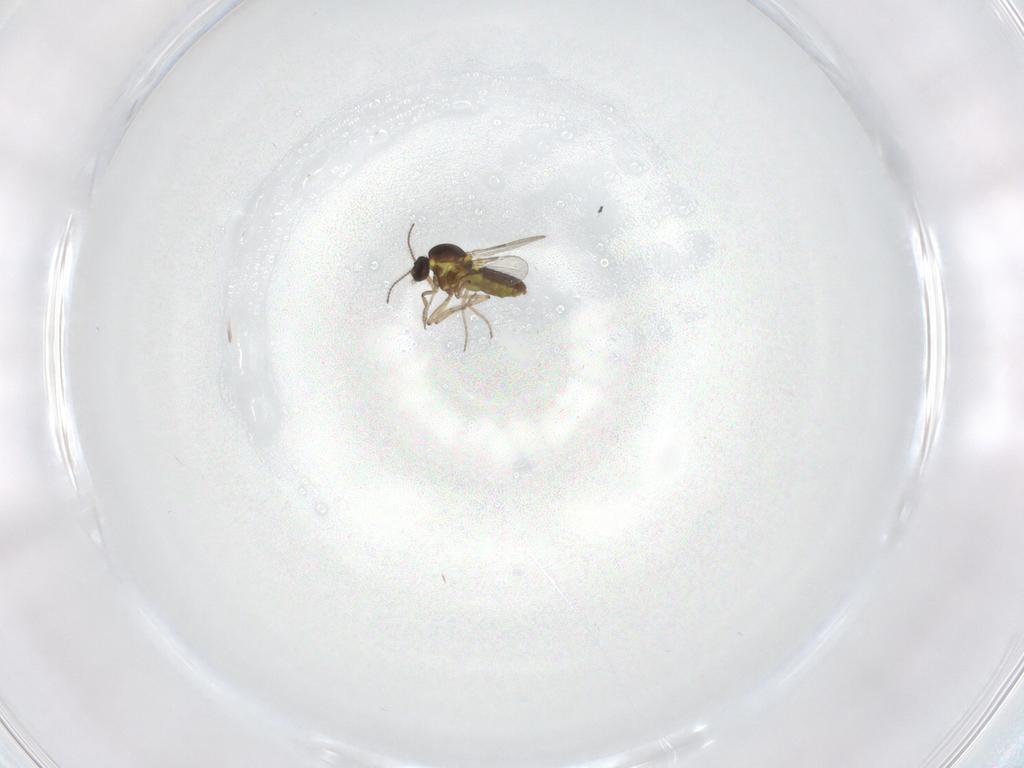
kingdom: Animalia
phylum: Arthropoda
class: Insecta
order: Diptera
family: Ceratopogonidae
